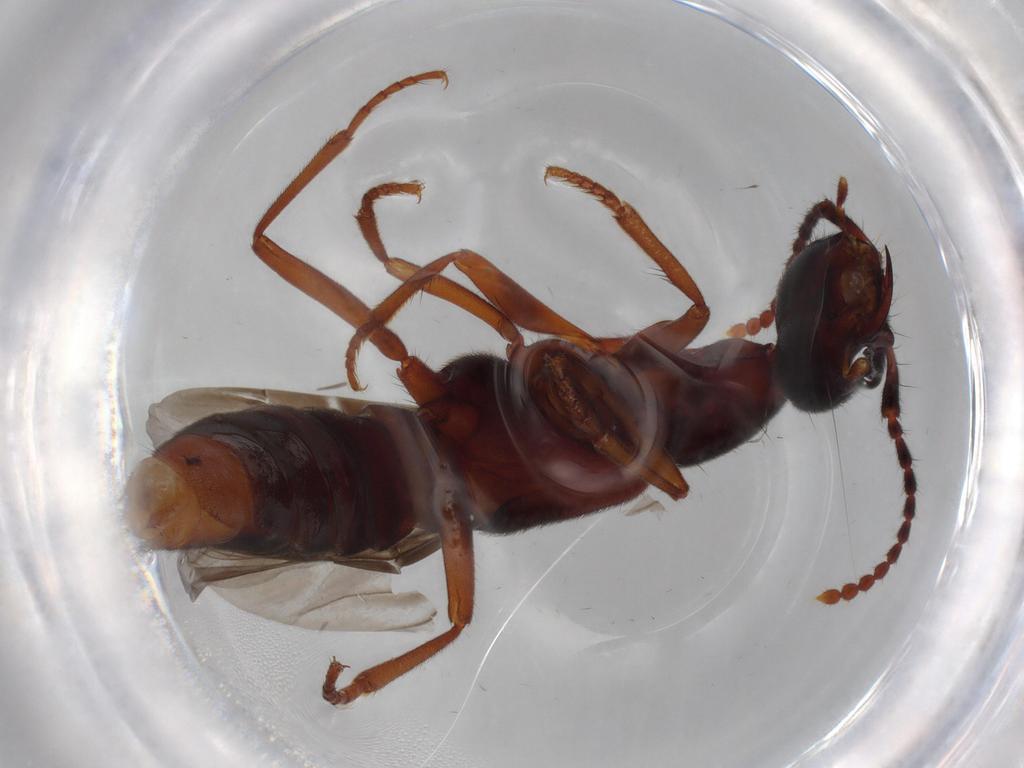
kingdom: Animalia
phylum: Arthropoda
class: Insecta
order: Coleoptera
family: Staphylinidae
